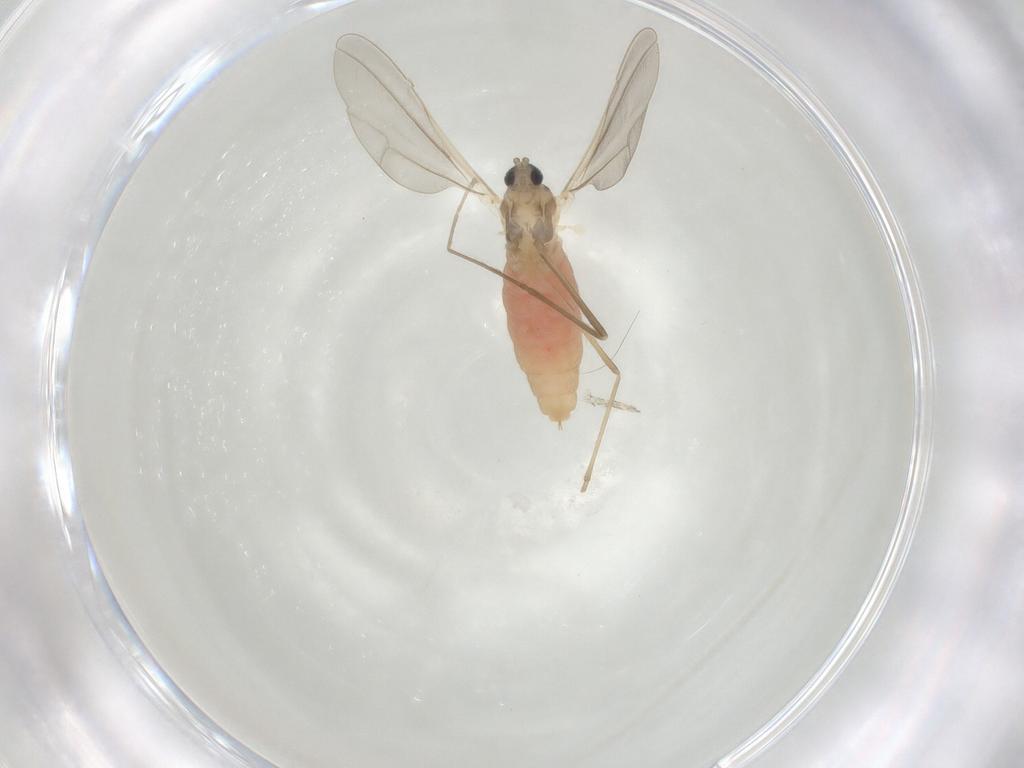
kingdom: Animalia
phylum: Arthropoda
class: Insecta
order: Diptera
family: Cecidomyiidae
